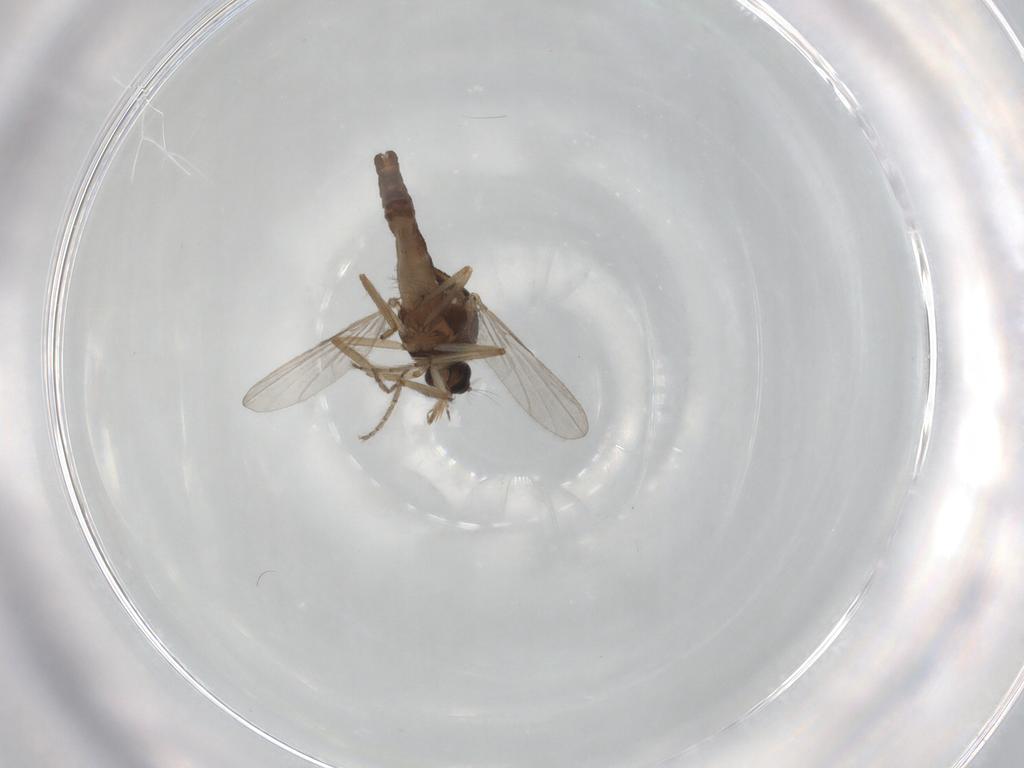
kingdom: Animalia
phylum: Arthropoda
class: Insecta
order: Diptera
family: Ceratopogonidae
